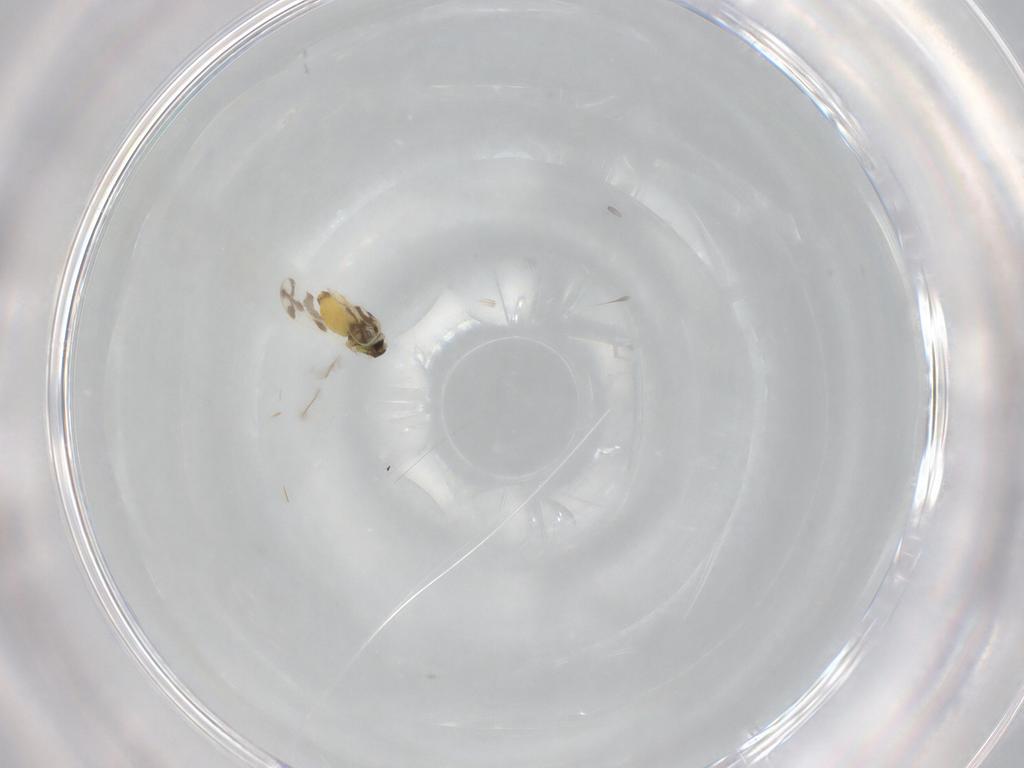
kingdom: Animalia
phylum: Arthropoda
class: Insecta
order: Hemiptera
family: Aleyrodidae
